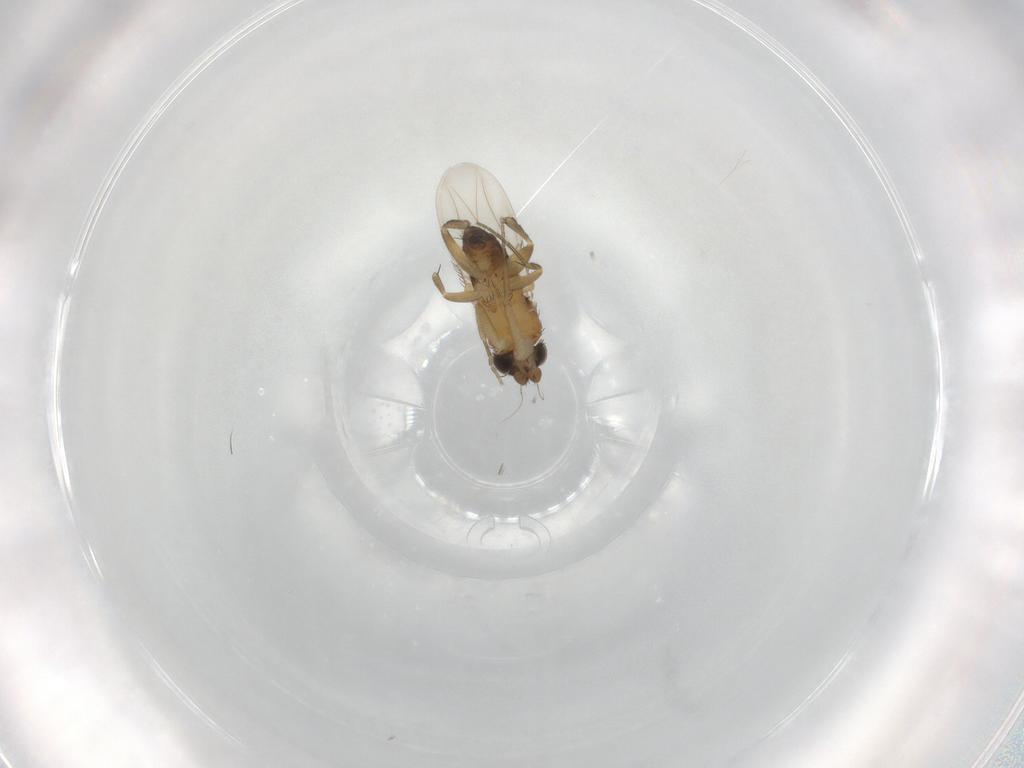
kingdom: Animalia
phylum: Arthropoda
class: Insecta
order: Diptera
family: Phoridae
